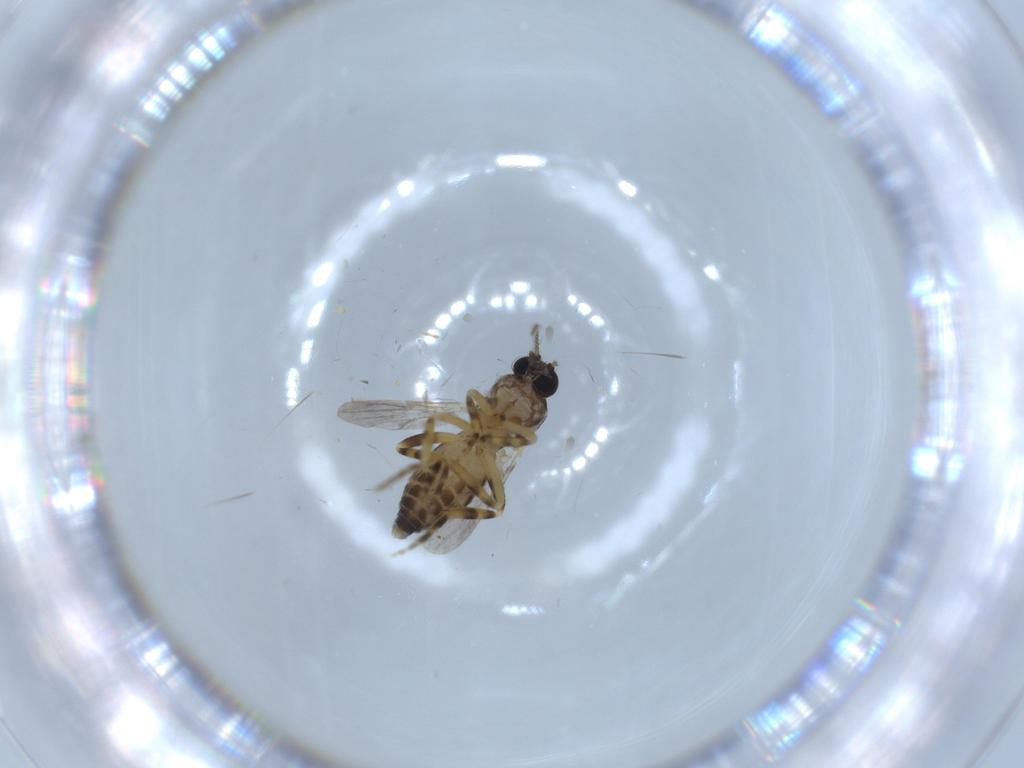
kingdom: Animalia
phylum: Arthropoda
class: Insecta
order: Diptera
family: Ceratopogonidae
